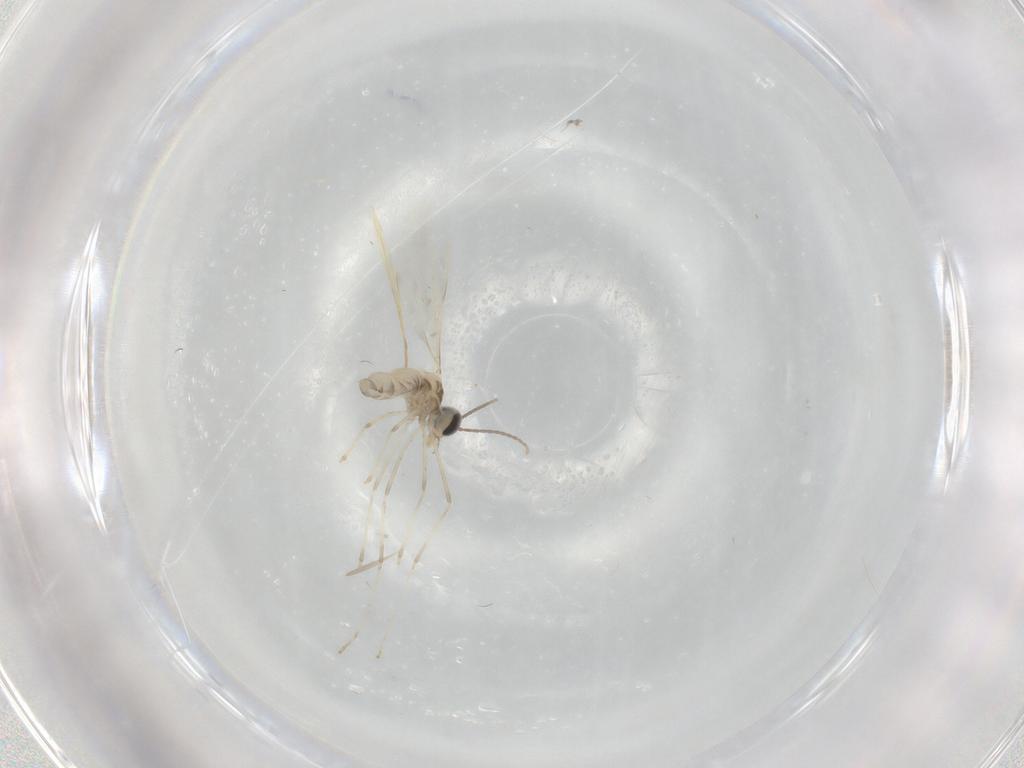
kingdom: Animalia
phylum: Arthropoda
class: Insecta
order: Diptera
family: Cecidomyiidae
